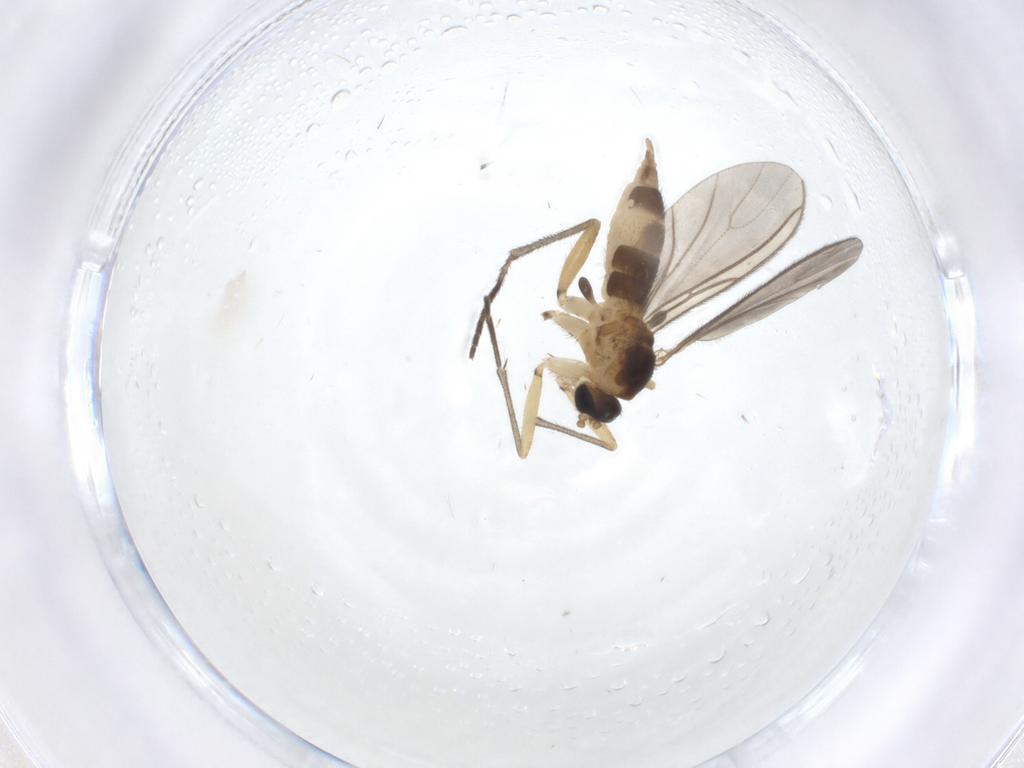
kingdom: Animalia
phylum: Arthropoda
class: Insecta
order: Diptera
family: Sciaridae
